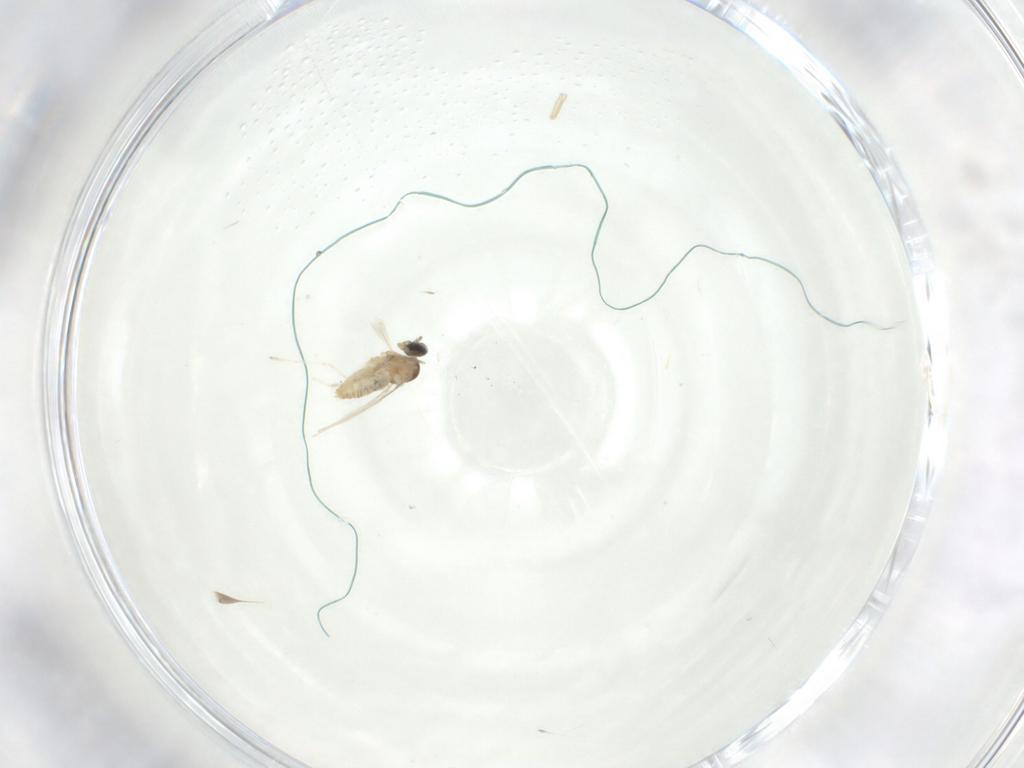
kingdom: Animalia
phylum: Arthropoda
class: Insecta
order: Diptera
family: Cecidomyiidae
